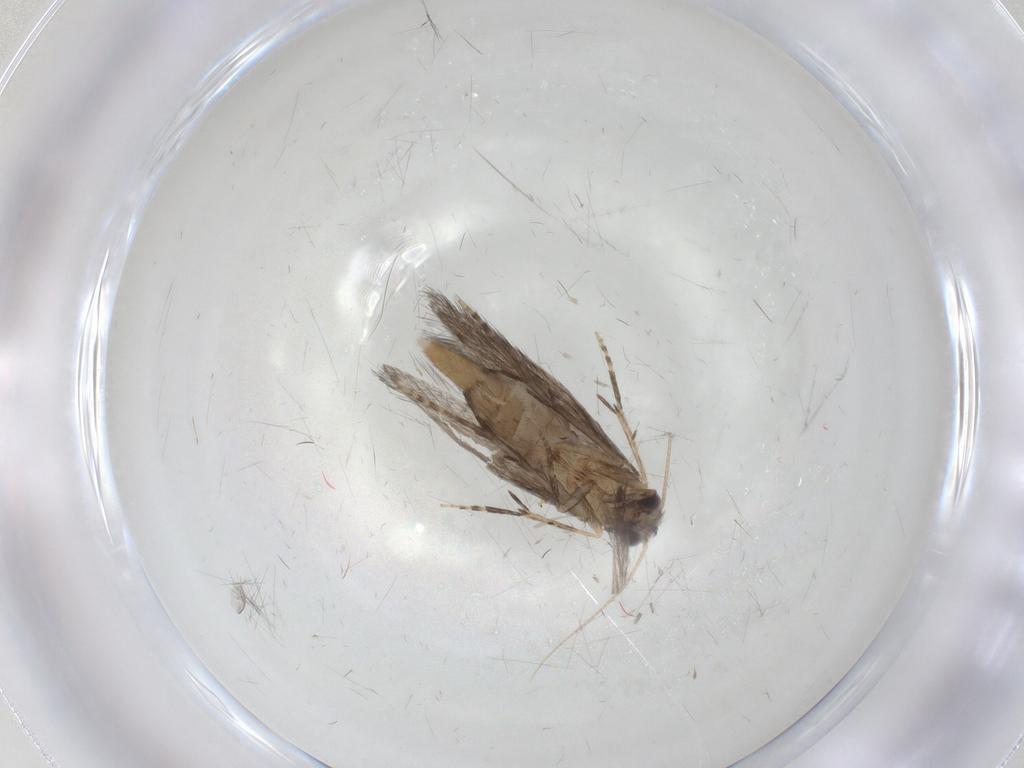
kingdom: Animalia
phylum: Arthropoda
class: Insecta
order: Trichoptera
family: Hydroptilidae
